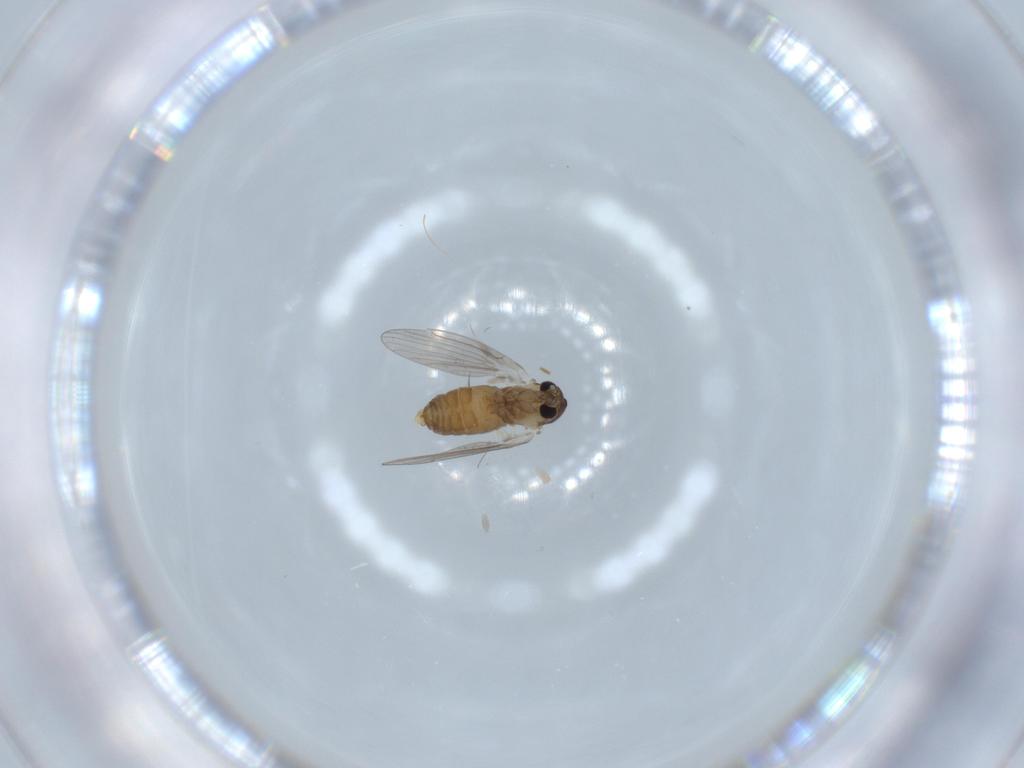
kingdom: Animalia
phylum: Arthropoda
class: Insecta
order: Diptera
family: Psychodidae
